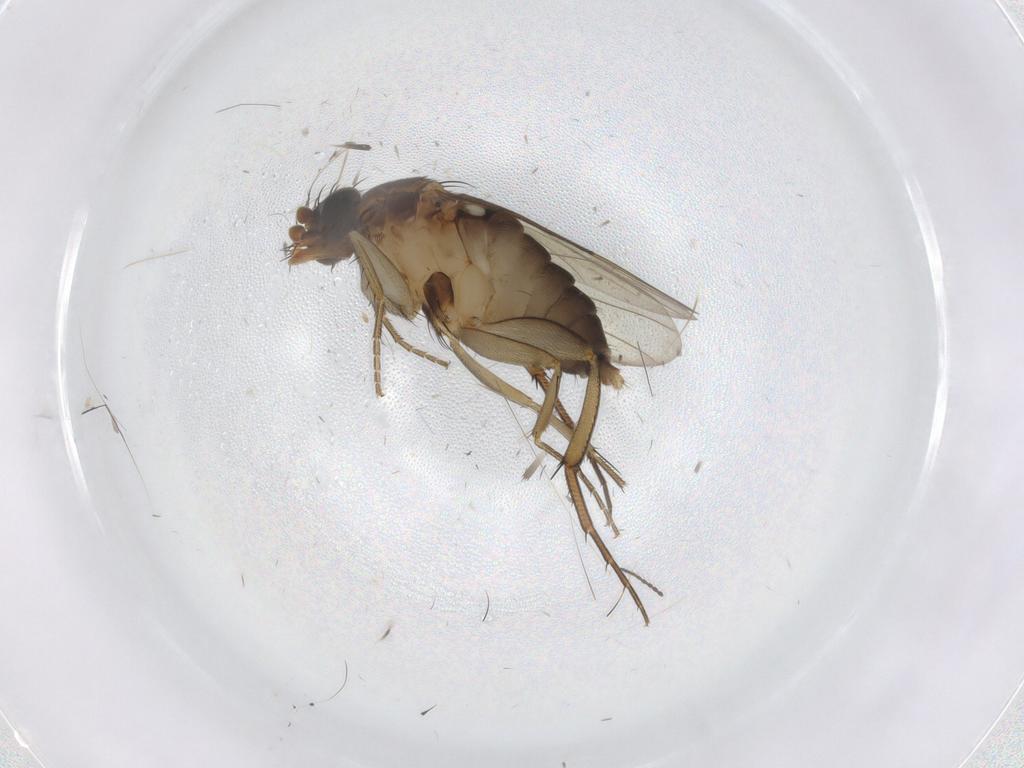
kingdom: Animalia
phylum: Arthropoda
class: Insecta
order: Diptera
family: Phoridae
